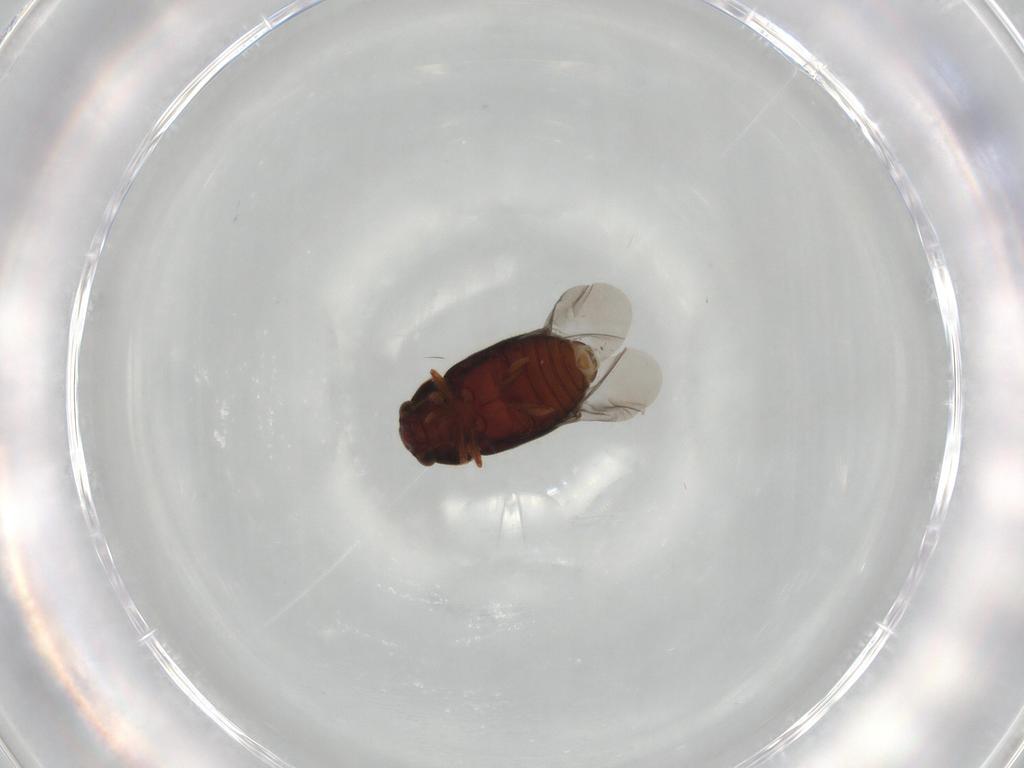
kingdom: Animalia
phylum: Arthropoda
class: Insecta
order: Coleoptera
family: Sphindidae
